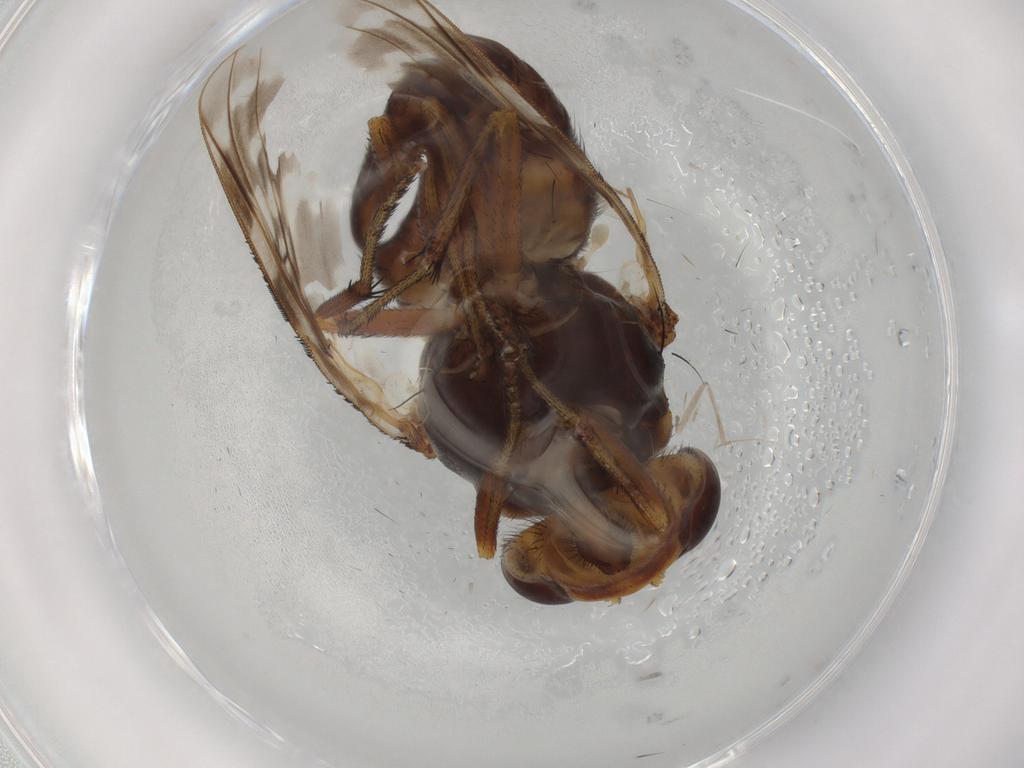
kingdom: Animalia
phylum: Arthropoda
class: Insecta
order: Diptera
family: Lauxaniidae
